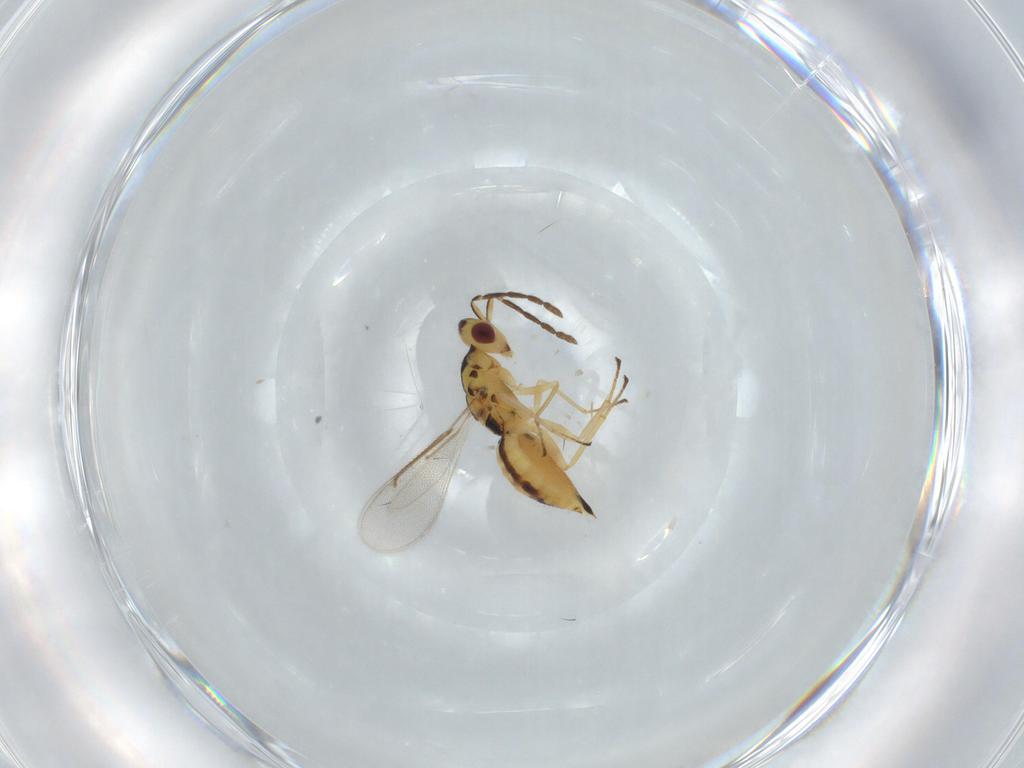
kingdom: Animalia
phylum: Arthropoda
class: Insecta
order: Hymenoptera
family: Eulophidae
